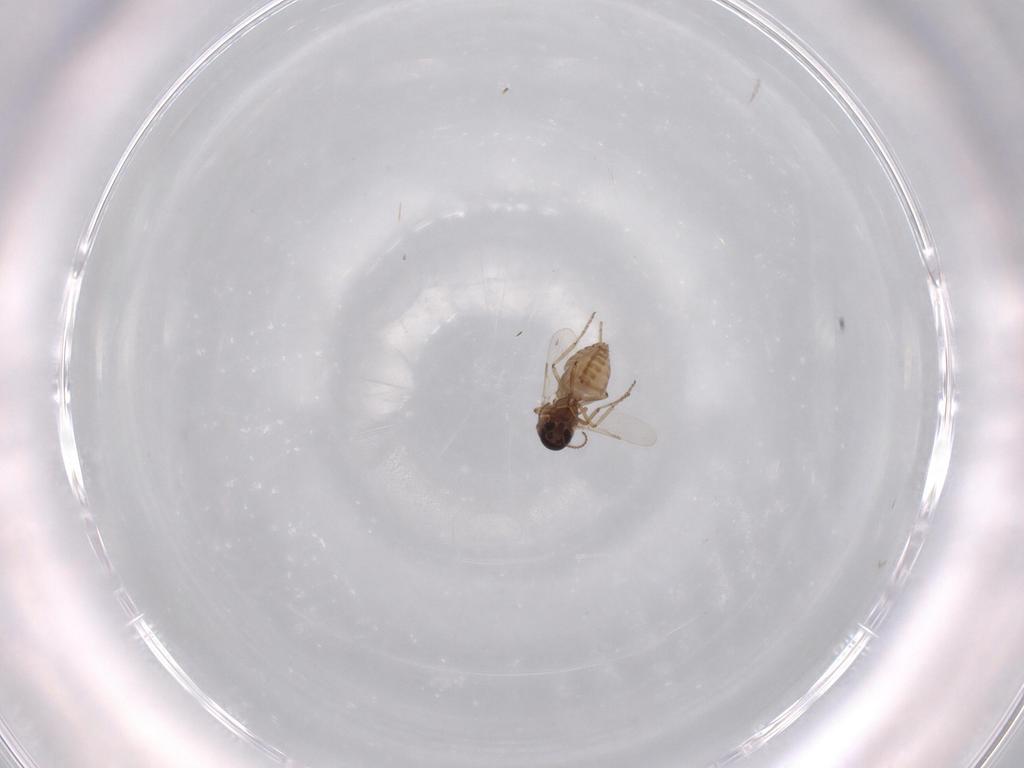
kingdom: Animalia
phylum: Arthropoda
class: Insecta
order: Diptera
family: Ceratopogonidae
